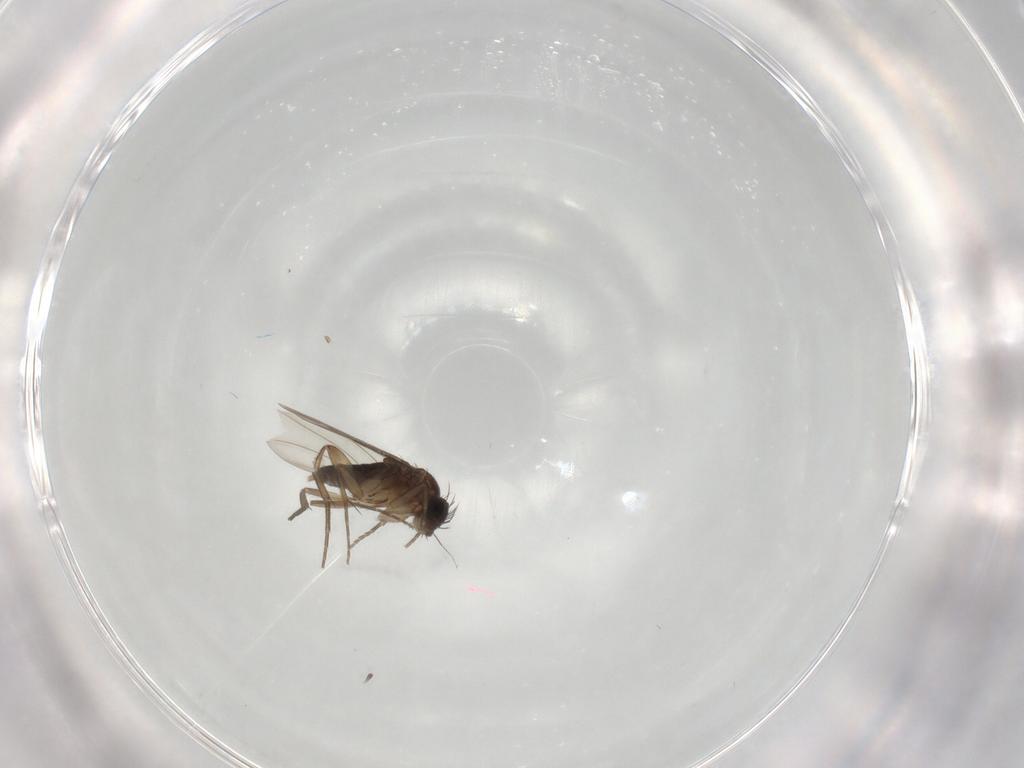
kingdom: Animalia
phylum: Arthropoda
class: Insecta
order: Diptera
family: Phoridae
